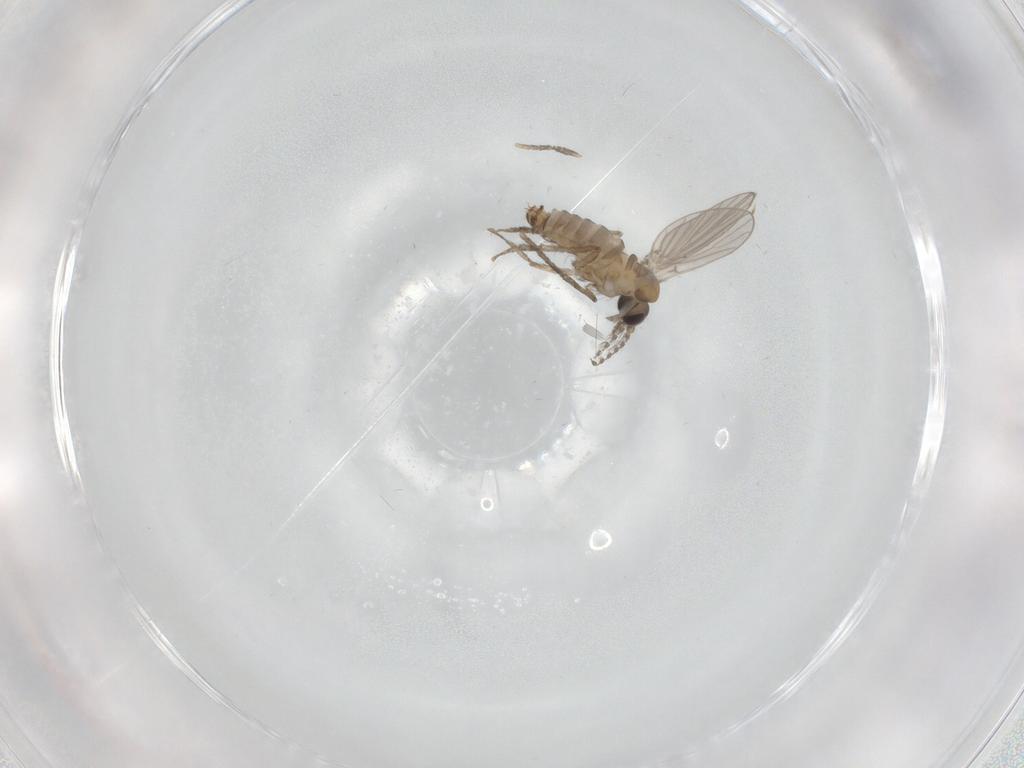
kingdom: Animalia
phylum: Arthropoda
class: Insecta
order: Diptera
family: Psychodidae
